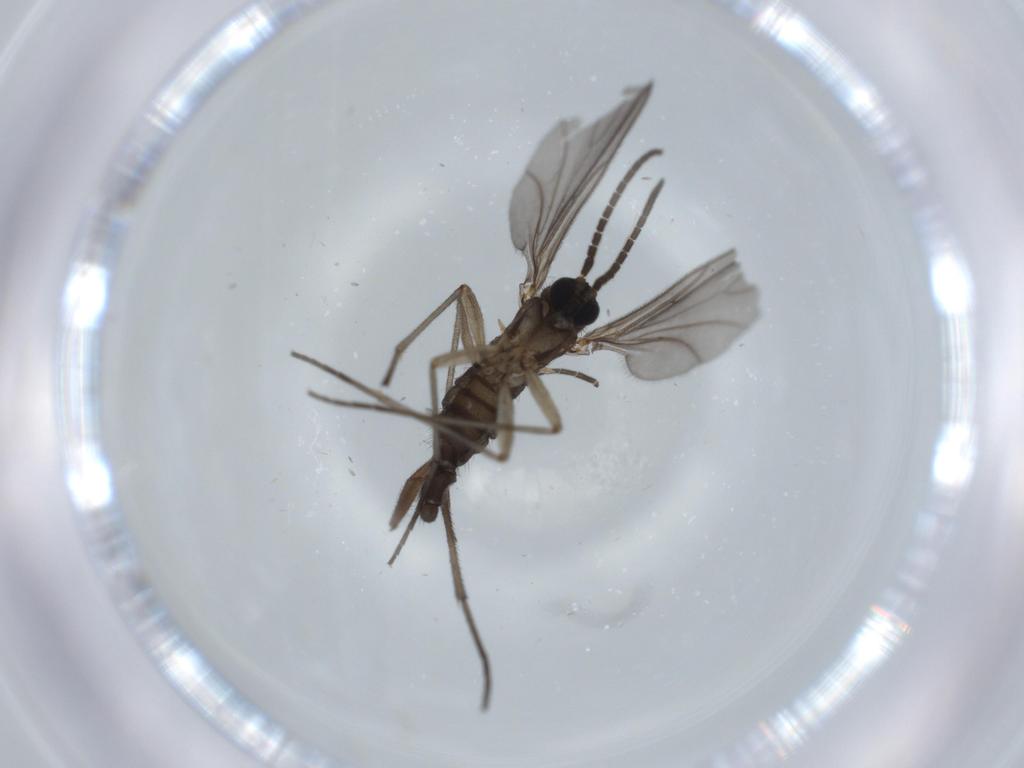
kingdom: Animalia
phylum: Arthropoda
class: Insecta
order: Diptera
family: Sciaridae
